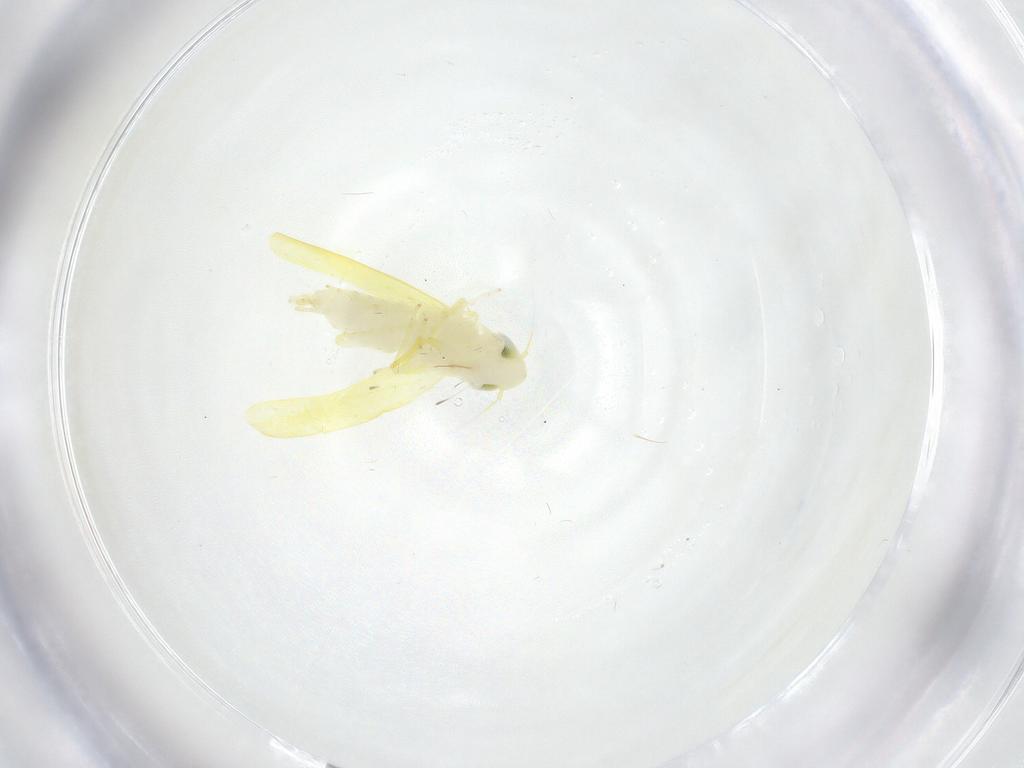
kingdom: Animalia
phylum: Arthropoda
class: Insecta
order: Hemiptera
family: Cicadellidae
